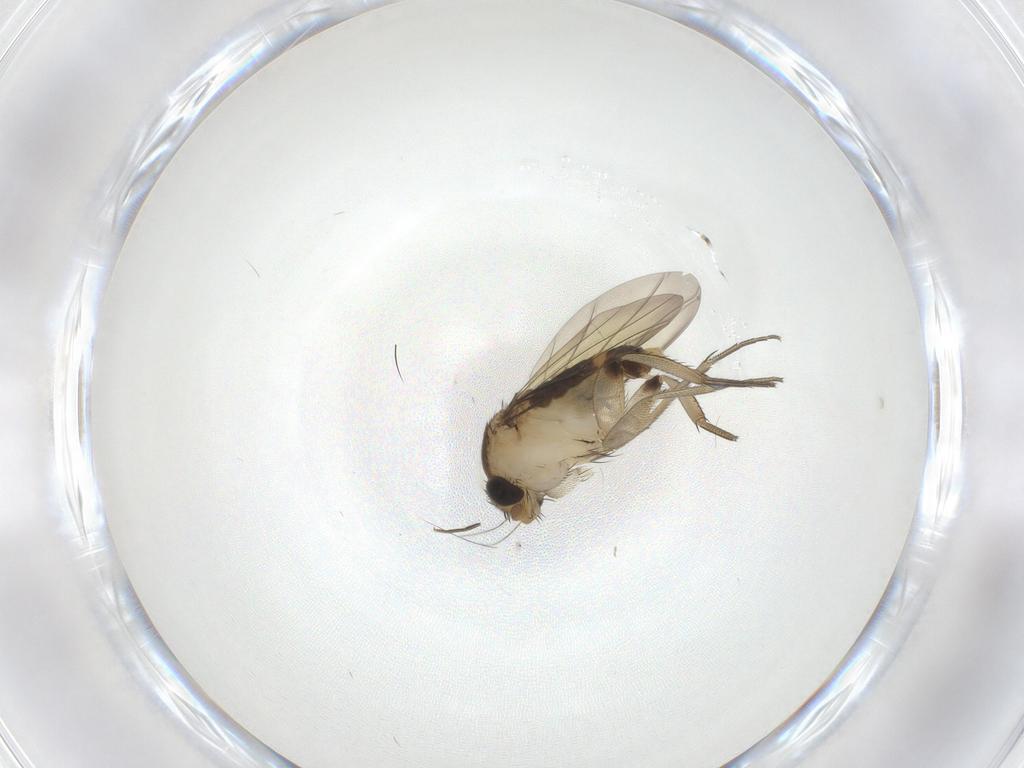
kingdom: Animalia
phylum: Arthropoda
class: Insecta
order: Diptera
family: Phoridae
